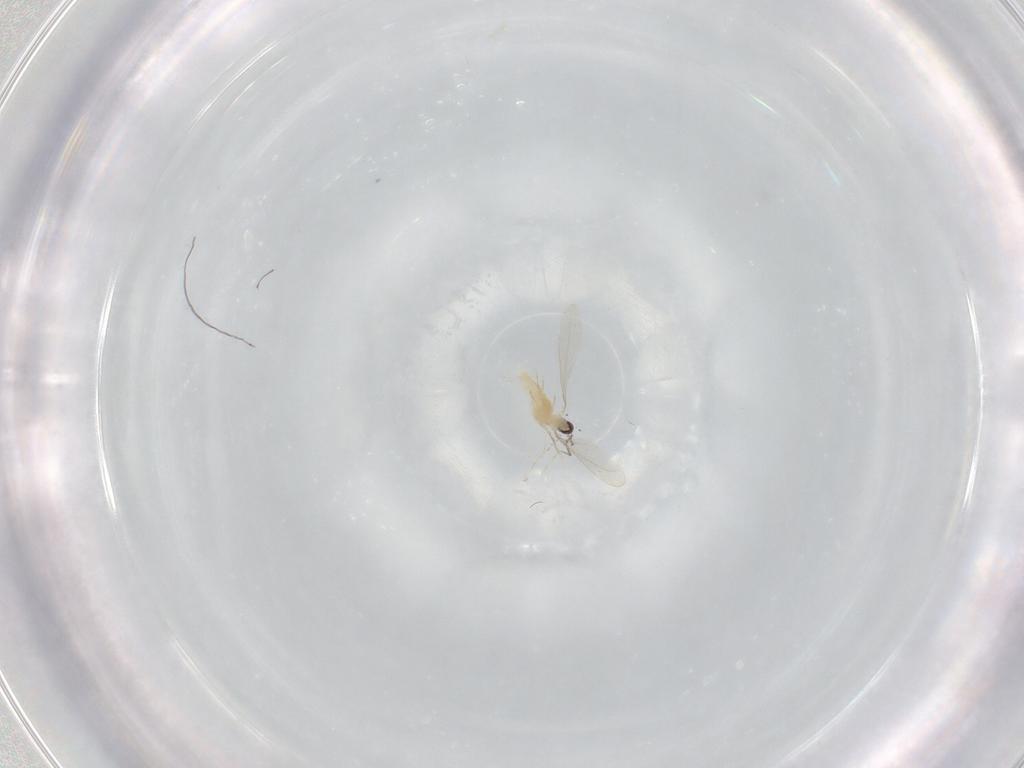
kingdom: Animalia
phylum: Arthropoda
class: Insecta
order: Diptera
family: Cecidomyiidae
